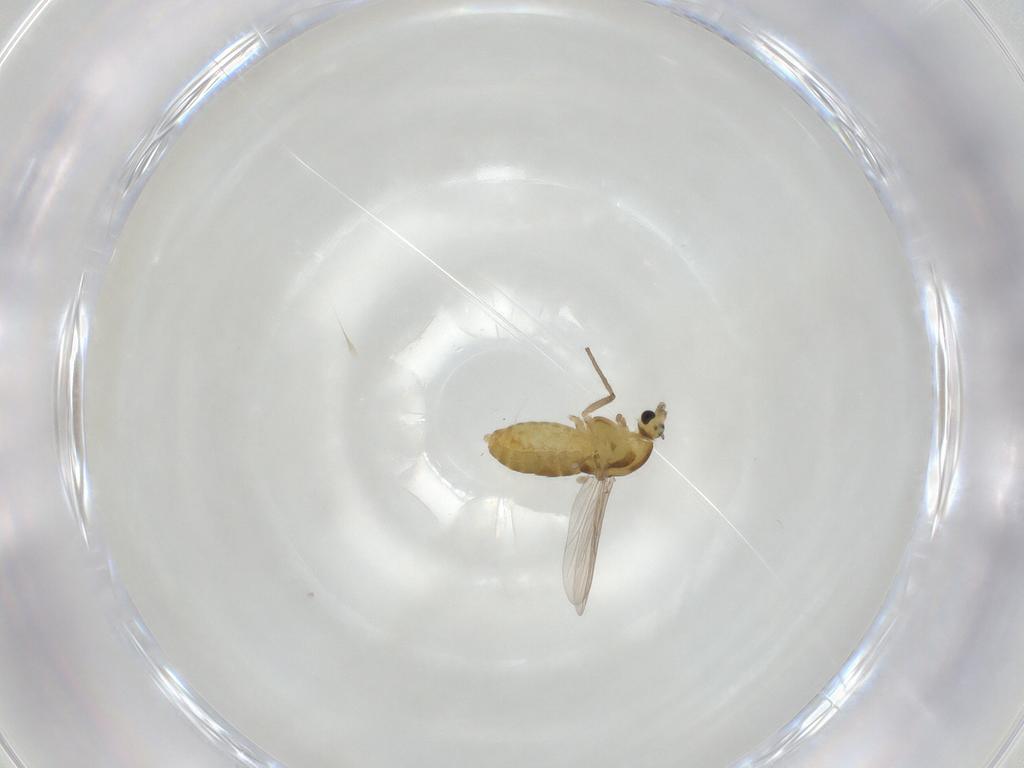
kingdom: Animalia
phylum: Arthropoda
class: Insecta
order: Diptera
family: Chironomidae
